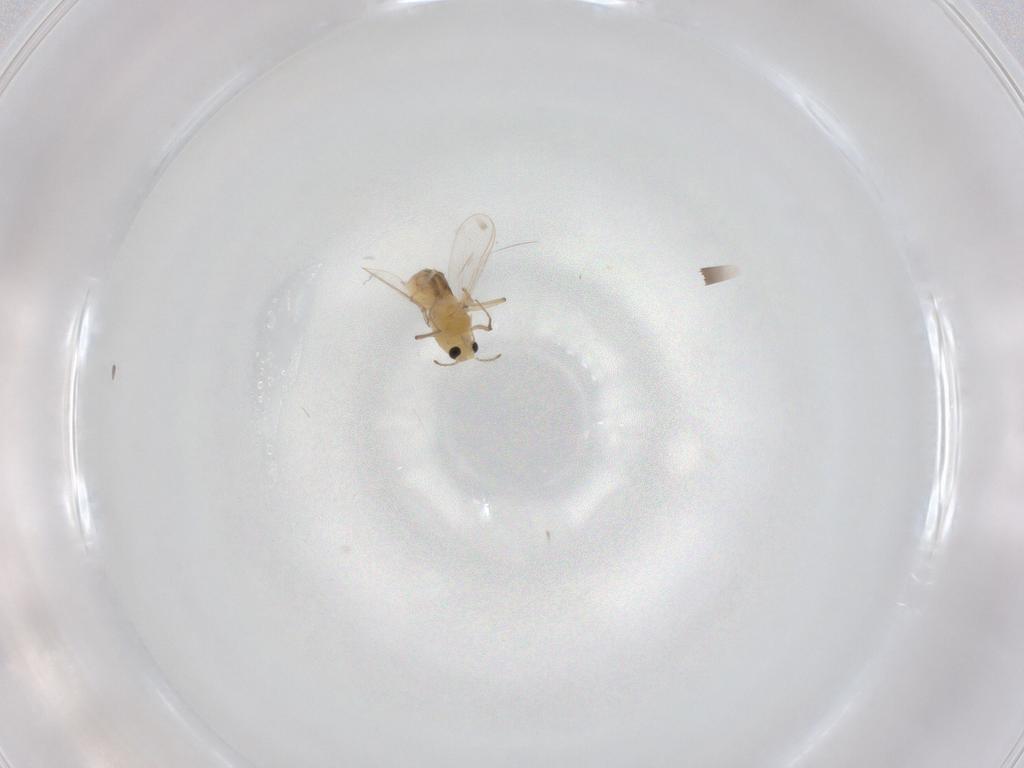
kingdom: Animalia
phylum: Arthropoda
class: Insecta
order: Diptera
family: Chironomidae
